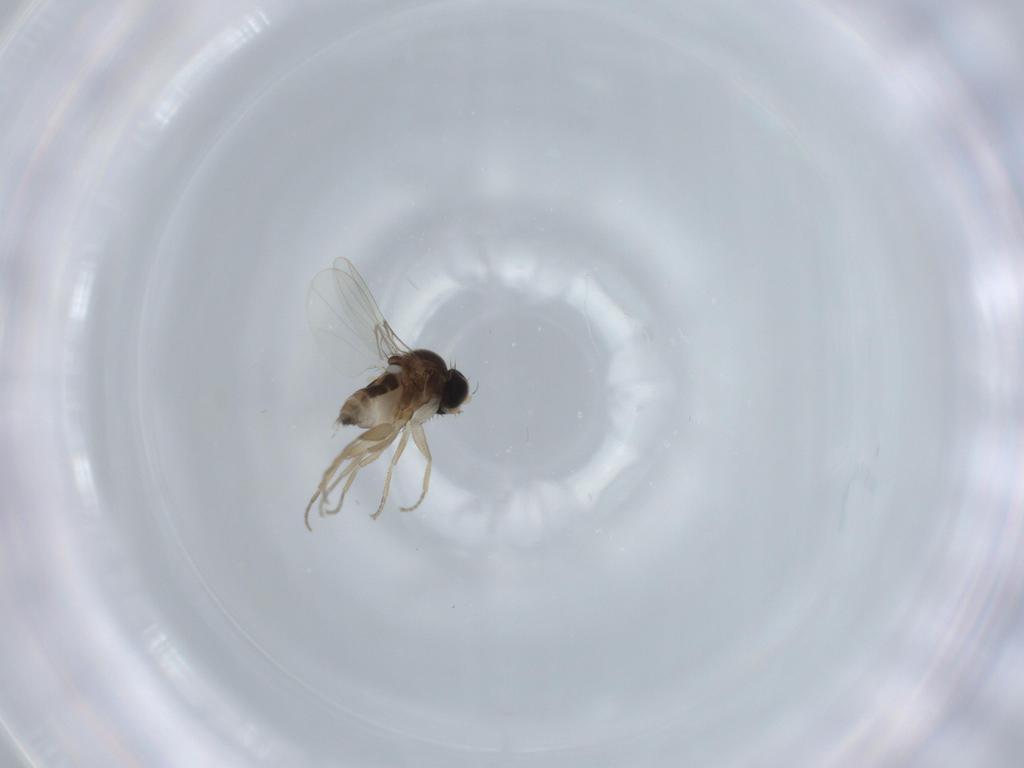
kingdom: Animalia
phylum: Arthropoda
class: Insecta
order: Diptera
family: Phoridae
